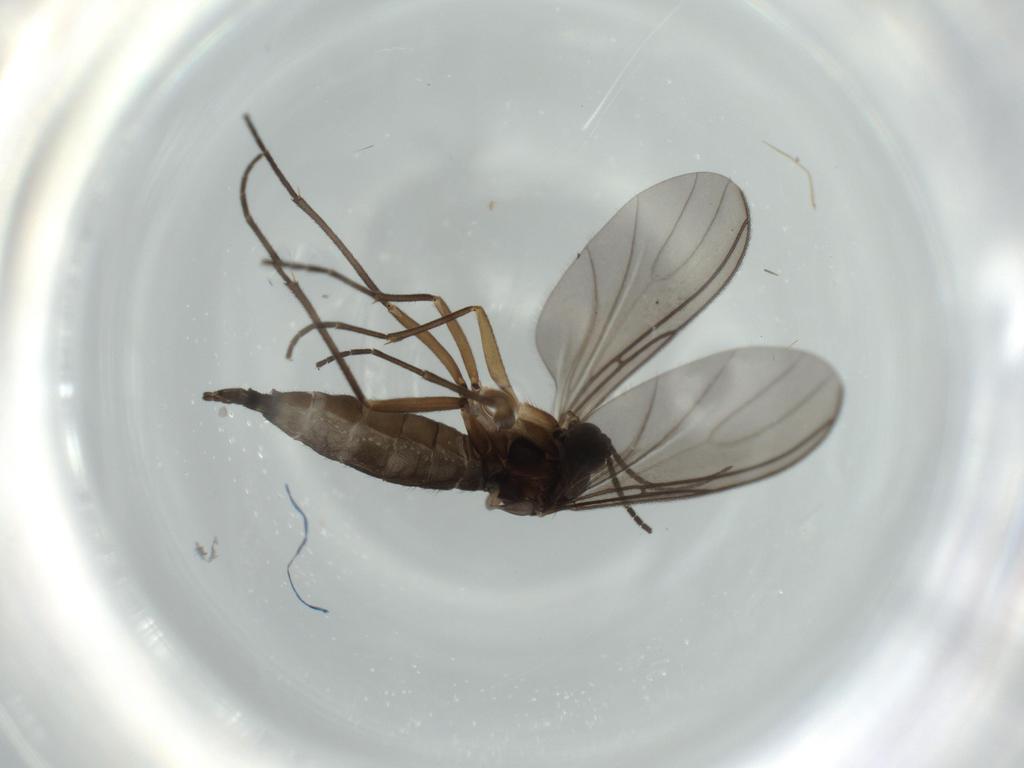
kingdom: Animalia
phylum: Arthropoda
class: Insecta
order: Diptera
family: Sciaridae
